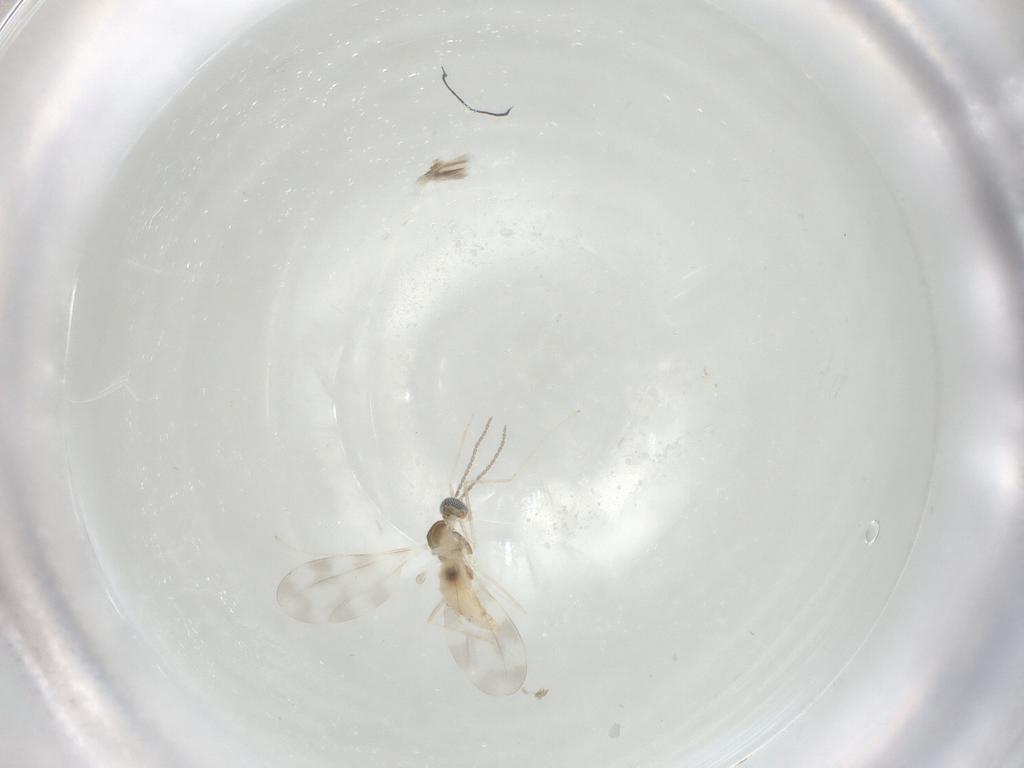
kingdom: Animalia
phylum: Arthropoda
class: Insecta
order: Diptera
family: Cecidomyiidae
